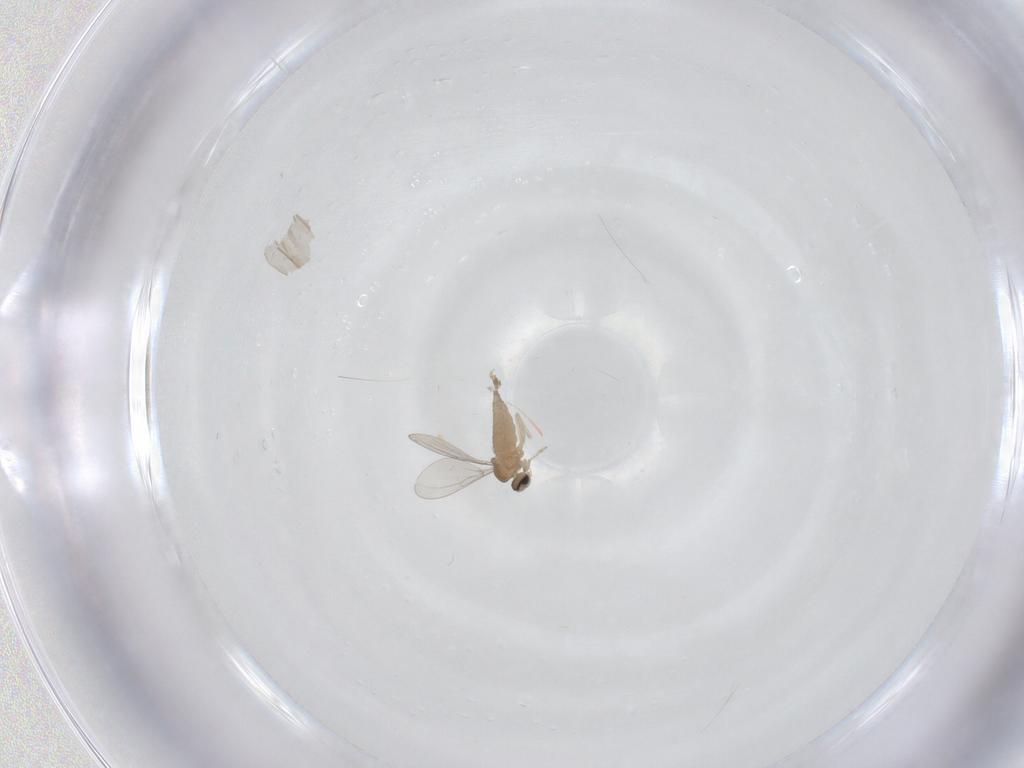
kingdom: Animalia
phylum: Arthropoda
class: Insecta
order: Diptera
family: Limoniidae
